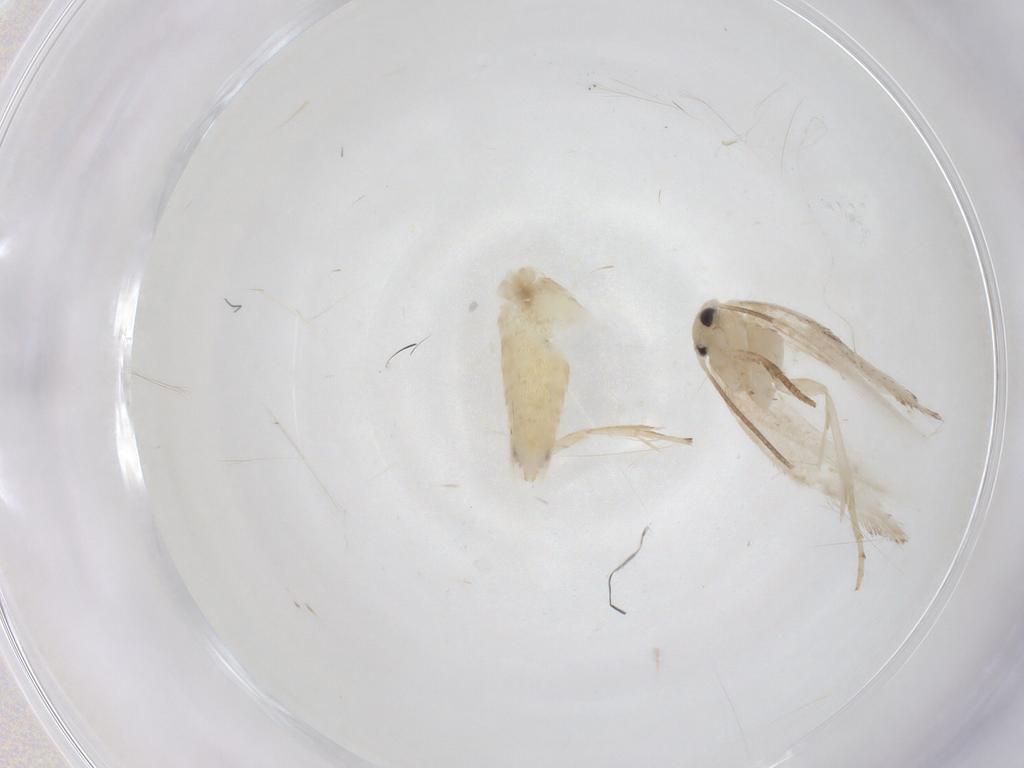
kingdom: Animalia
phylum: Arthropoda
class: Insecta
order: Lepidoptera
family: Lyonetiidae
